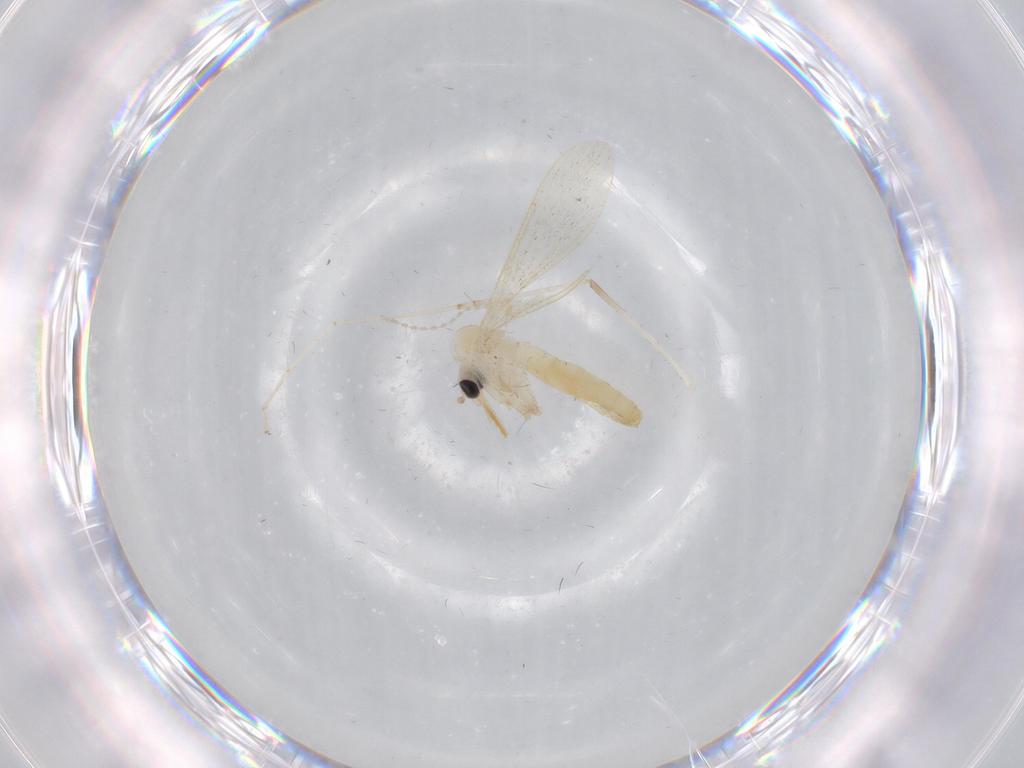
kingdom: Animalia
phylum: Arthropoda
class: Insecta
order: Diptera
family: Psychodidae
